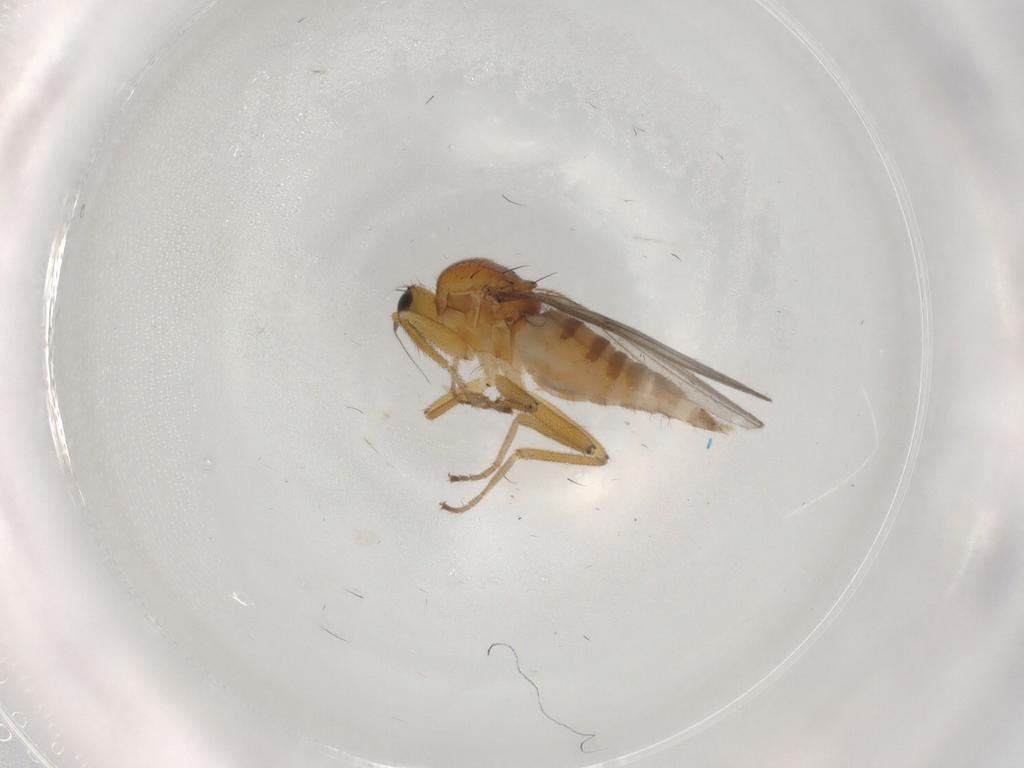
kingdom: Animalia
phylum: Arthropoda
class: Insecta
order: Diptera
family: Hybotidae
